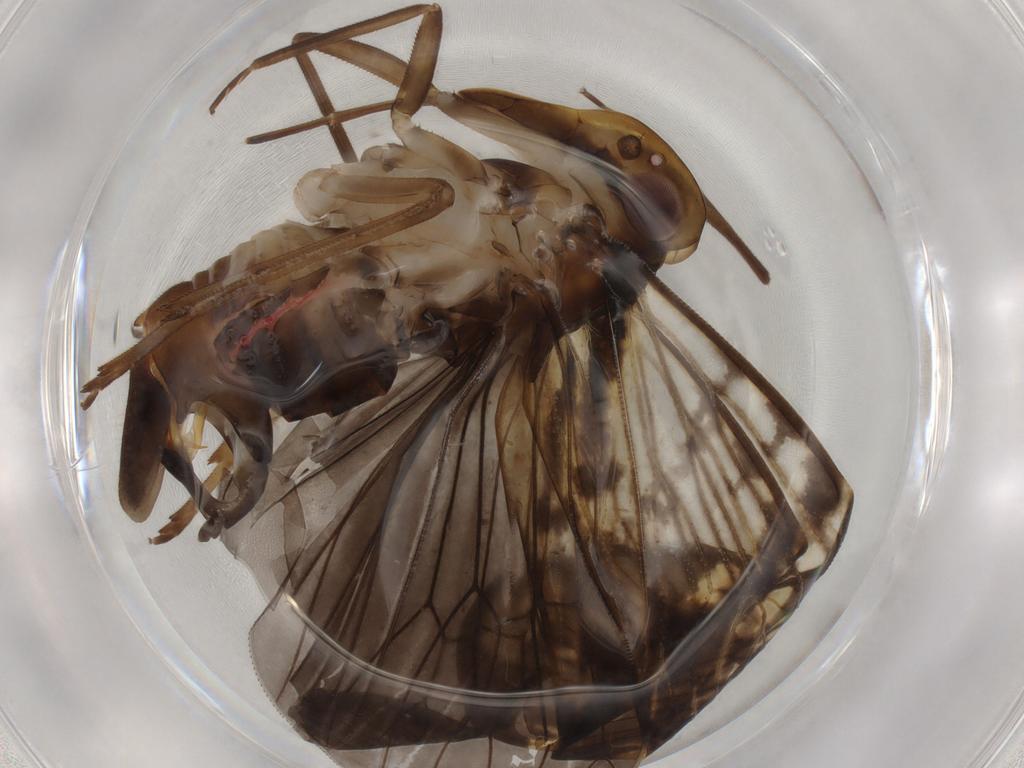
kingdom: Animalia
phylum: Arthropoda
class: Insecta
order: Hemiptera
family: Cixiidae
